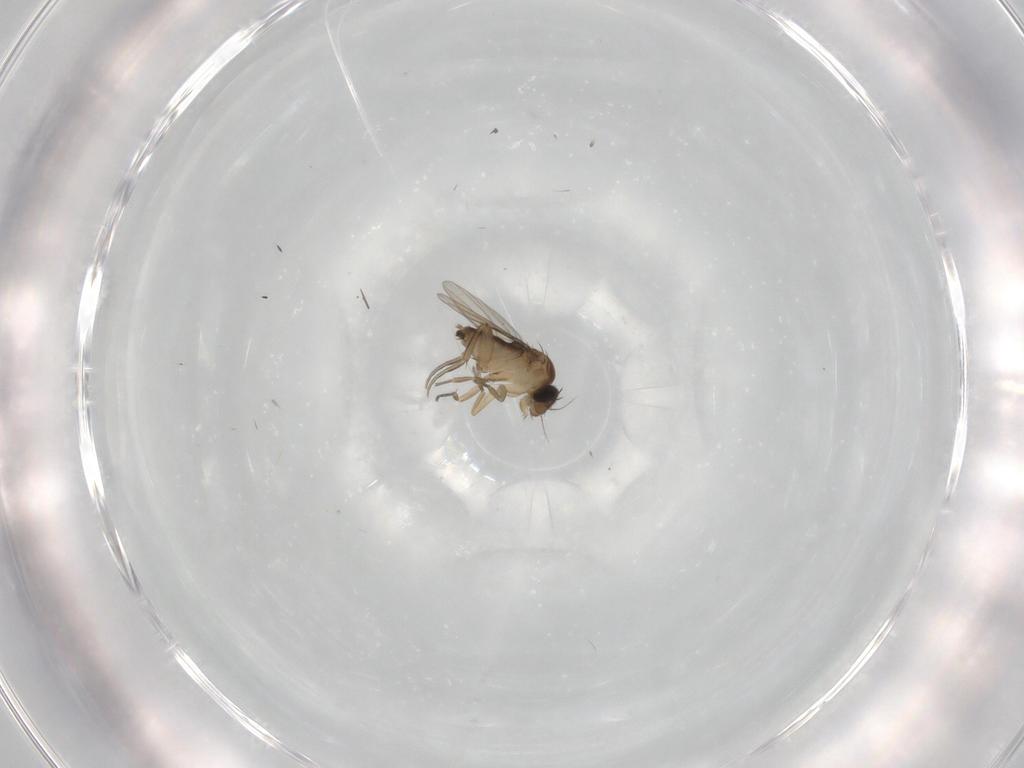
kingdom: Animalia
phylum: Arthropoda
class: Insecta
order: Diptera
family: Phoridae
